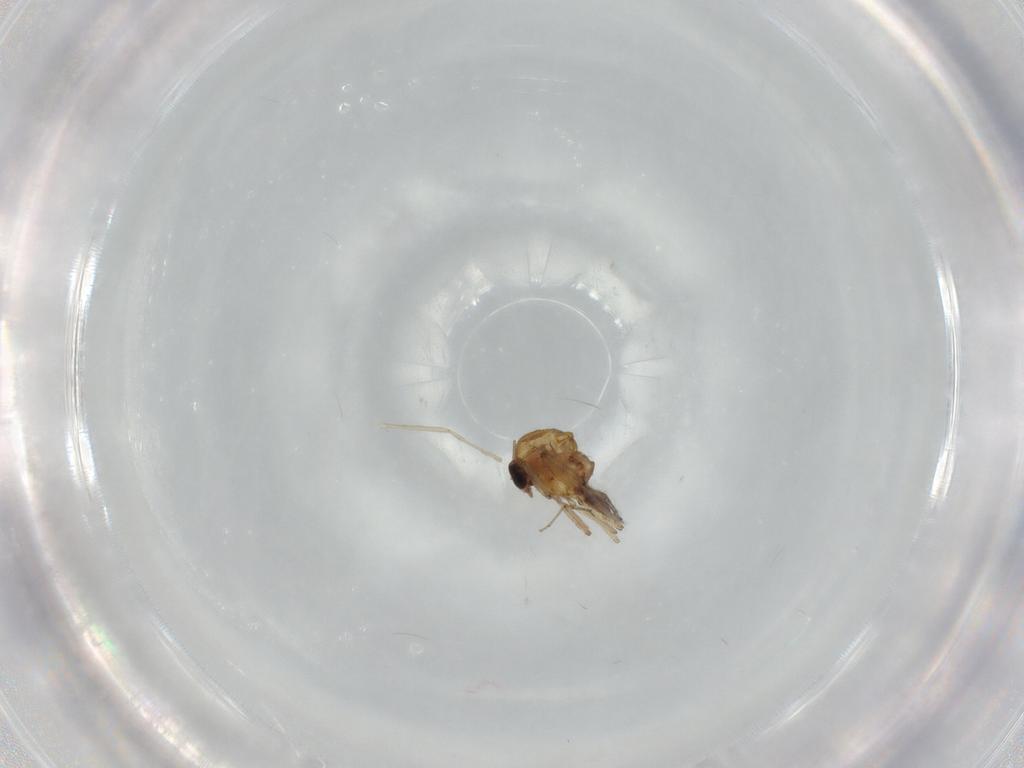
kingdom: Animalia
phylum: Arthropoda
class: Insecta
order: Diptera
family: Ceratopogonidae
